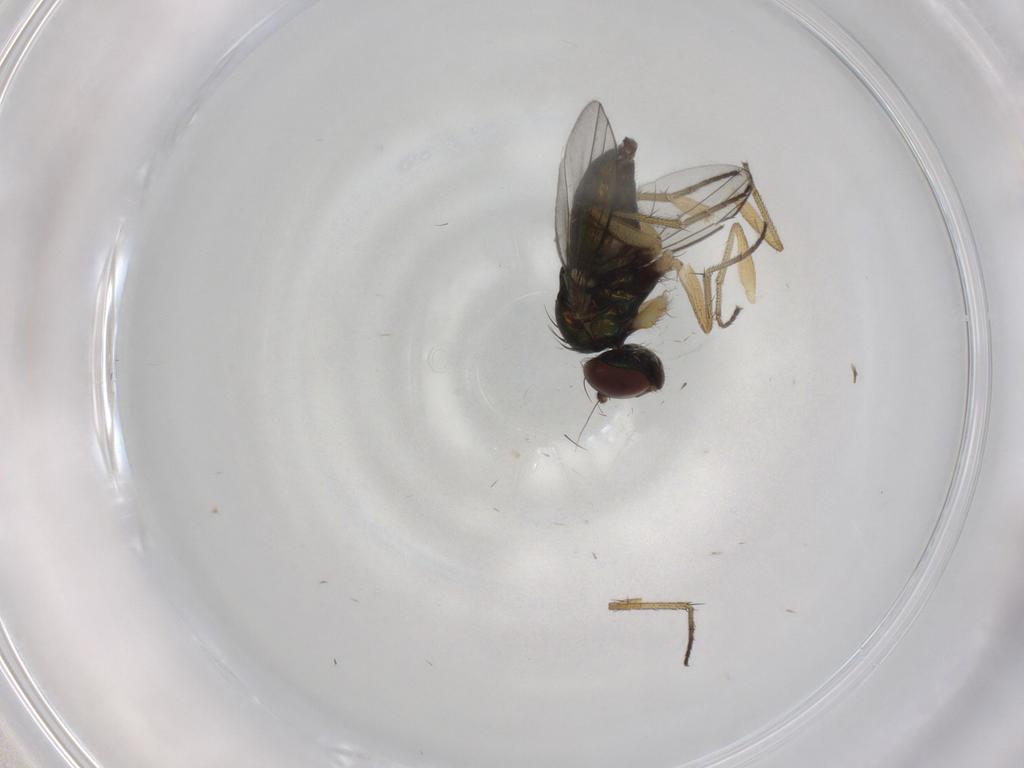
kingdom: Animalia
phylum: Arthropoda
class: Insecta
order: Diptera
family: Dolichopodidae
